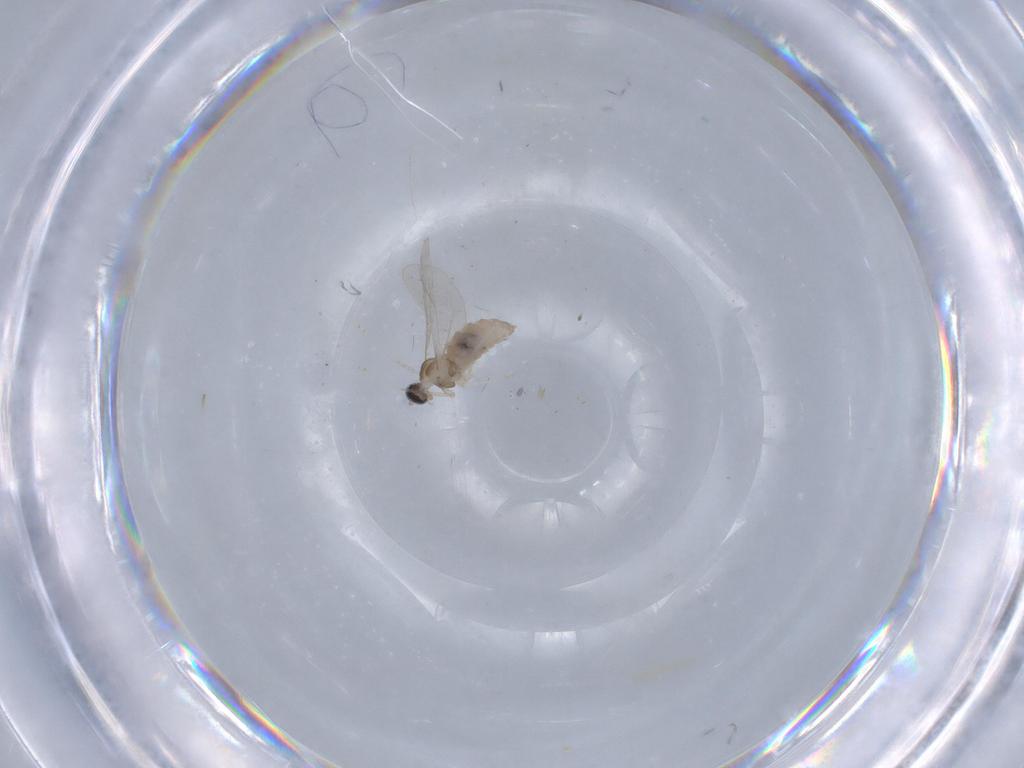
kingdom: Animalia
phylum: Arthropoda
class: Insecta
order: Diptera
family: Cecidomyiidae
